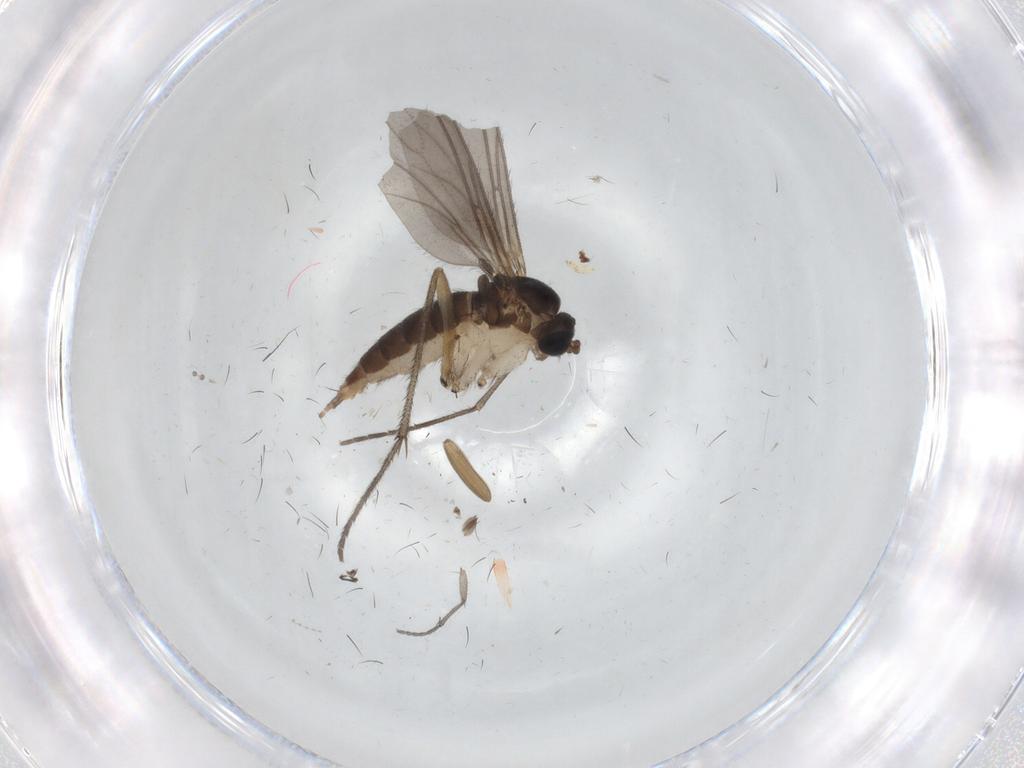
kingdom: Animalia
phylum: Arthropoda
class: Insecta
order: Diptera
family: Sciaridae
